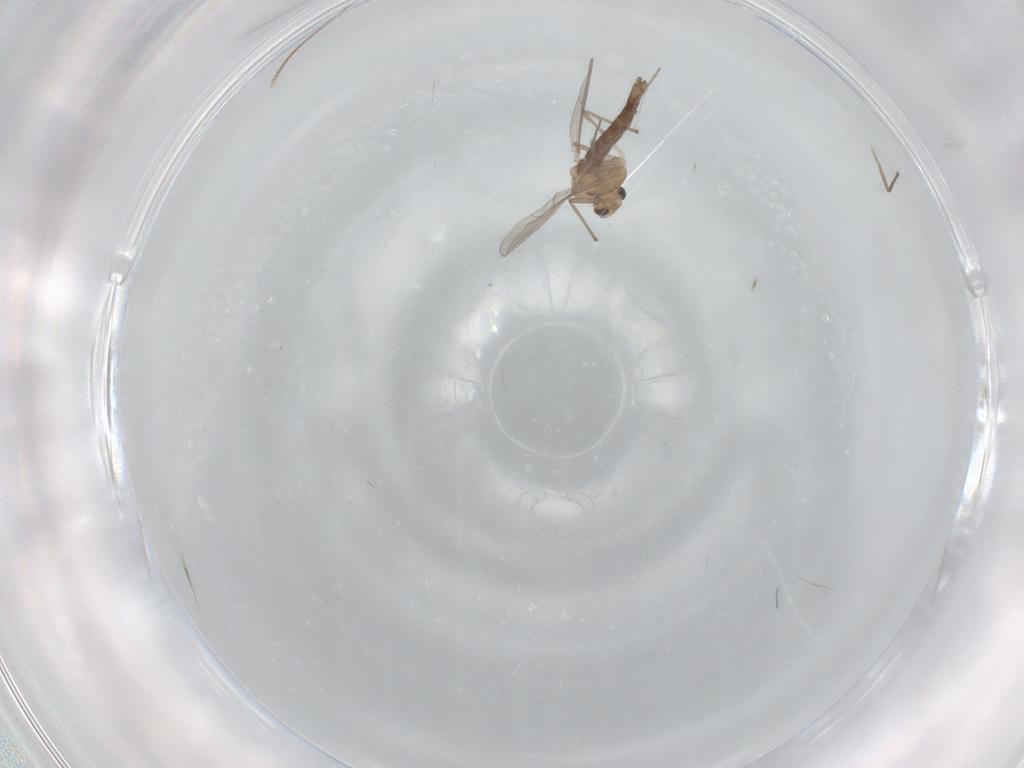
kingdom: Animalia
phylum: Arthropoda
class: Insecta
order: Diptera
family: Chironomidae
